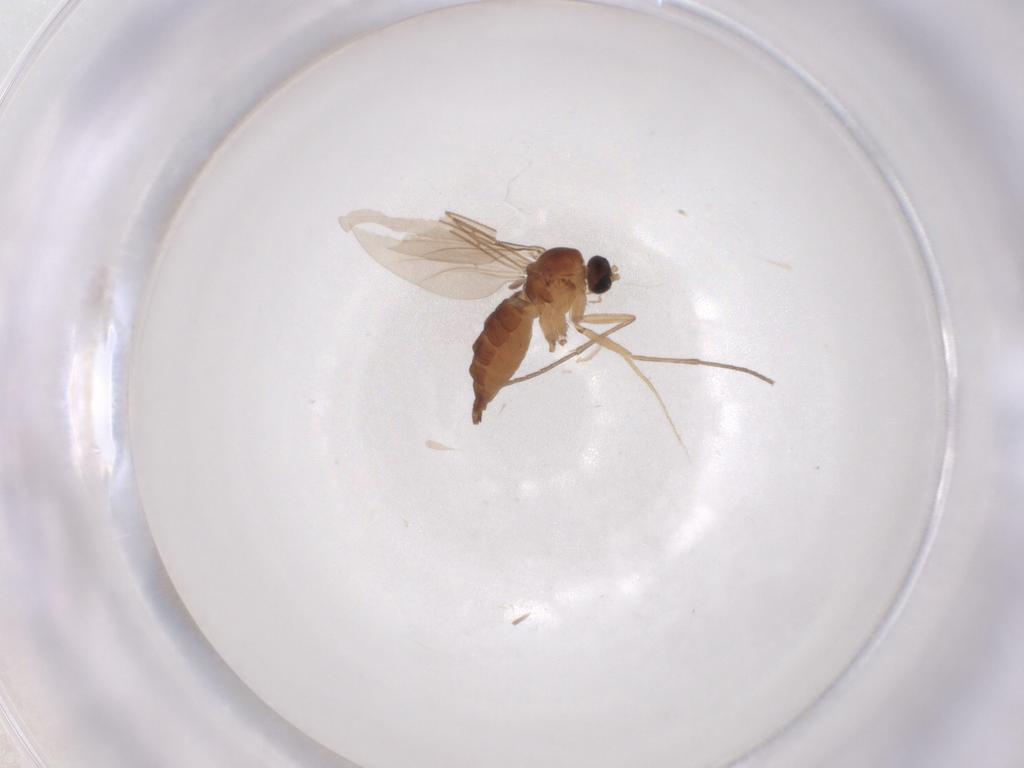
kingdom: Animalia
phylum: Arthropoda
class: Insecta
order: Diptera
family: Sciaridae
